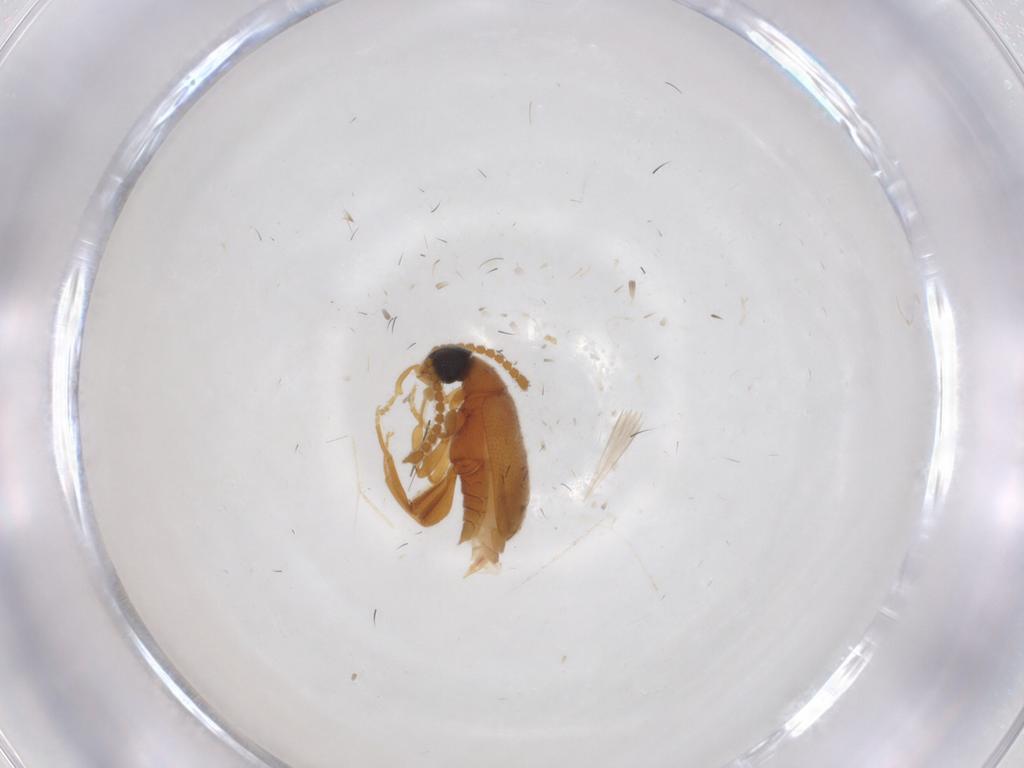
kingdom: Animalia
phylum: Arthropoda
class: Insecta
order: Coleoptera
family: Aderidae
